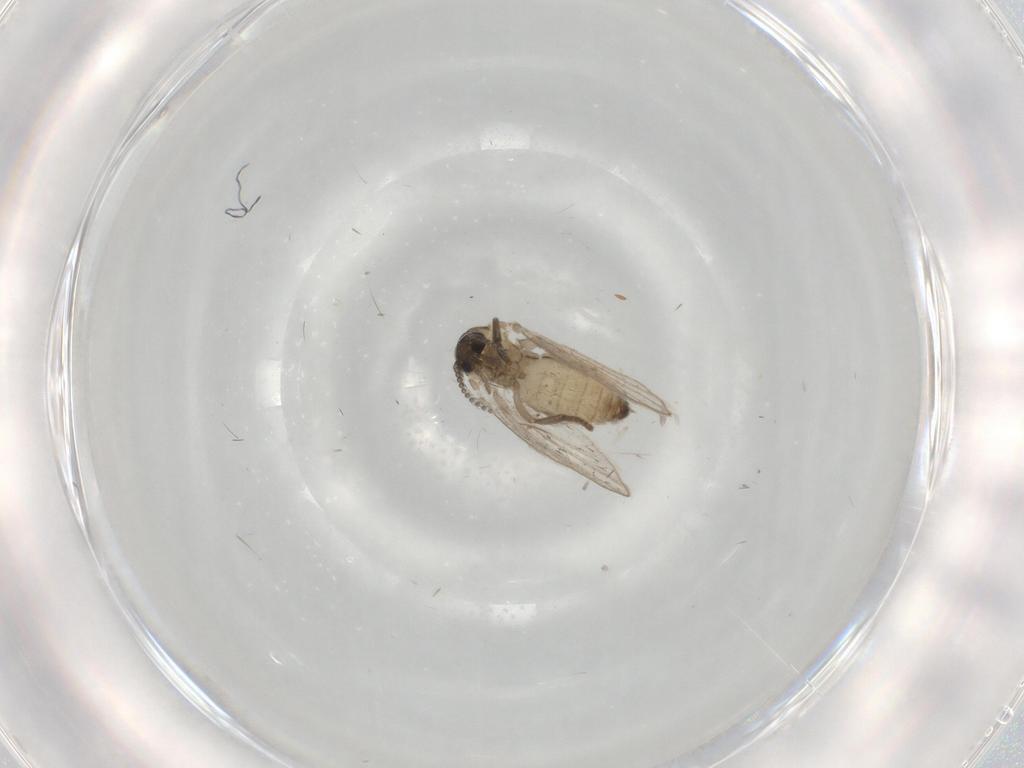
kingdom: Animalia
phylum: Arthropoda
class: Insecta
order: Diptera
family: Psychodidae
